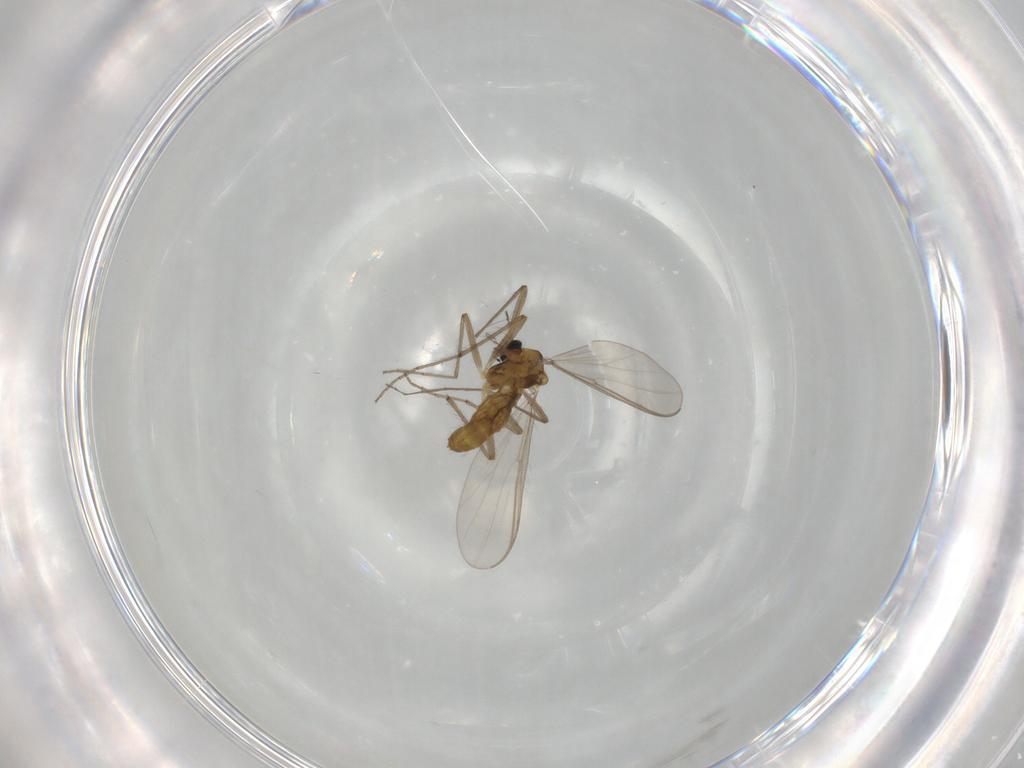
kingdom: Animalia
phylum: Arthropoda
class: Insecta
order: Diptera
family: Chironomidae
